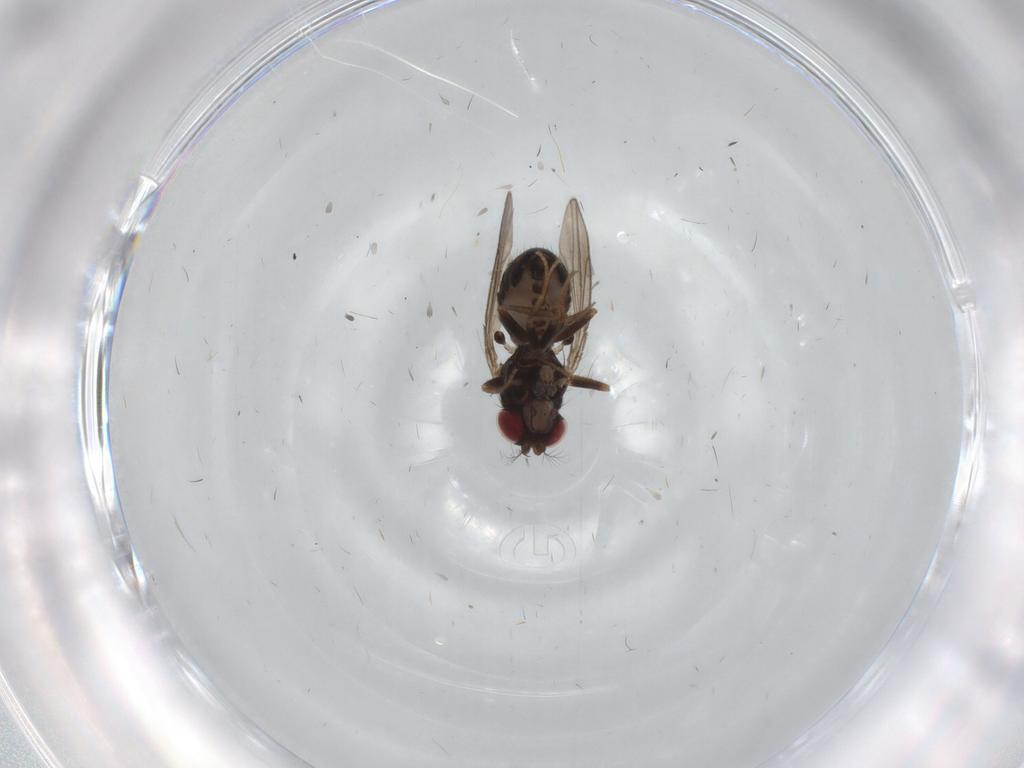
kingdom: Animalia
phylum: Arthropoda
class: Insecta
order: Diptera
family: Drosophilidae
